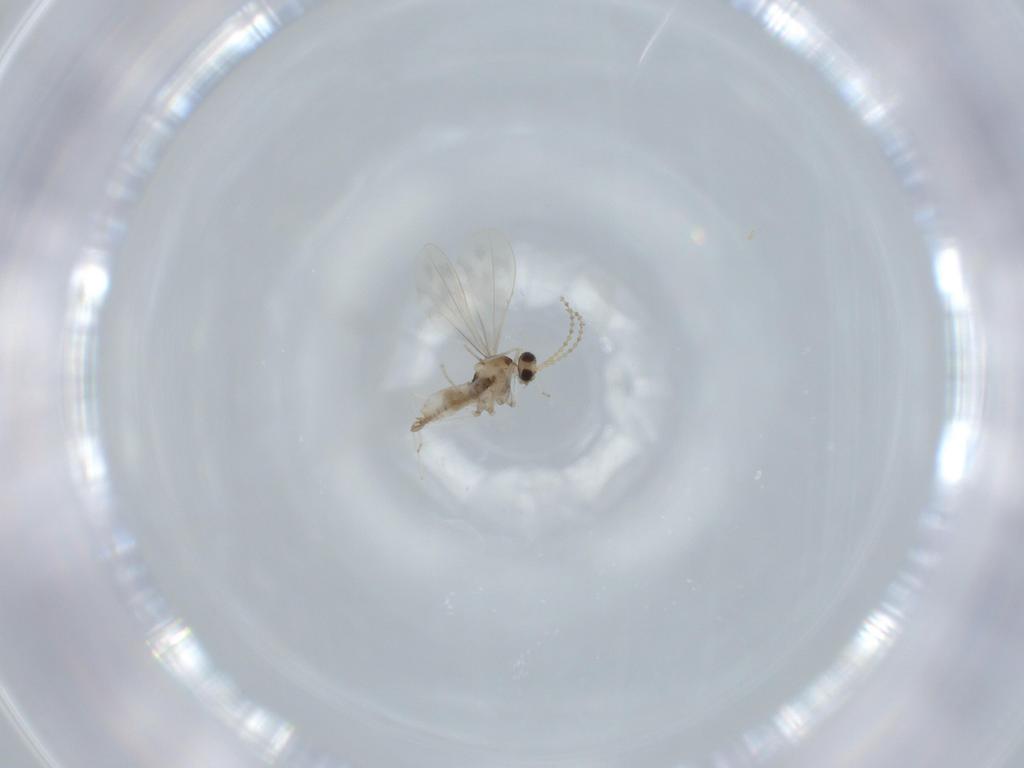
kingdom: Animalia
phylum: Arthropoda
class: Insecta
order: Diptera
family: Cecidomyiidae
